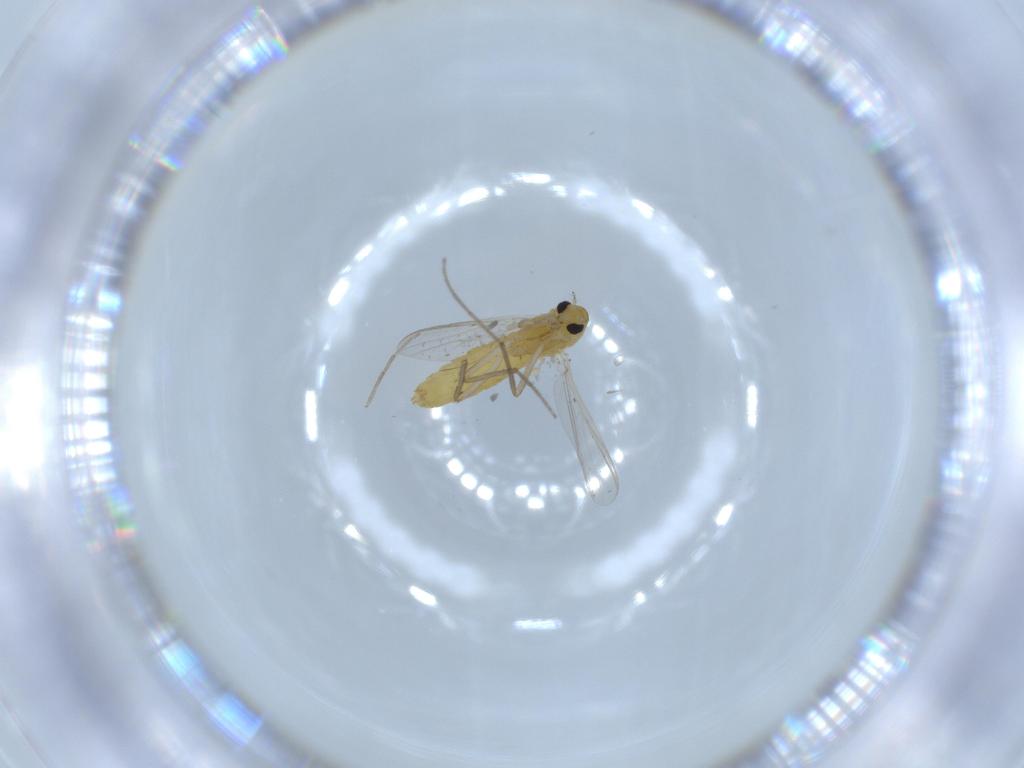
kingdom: Animalia
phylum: Arthropoda
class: Insecta
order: Diptera
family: Chironomidae
